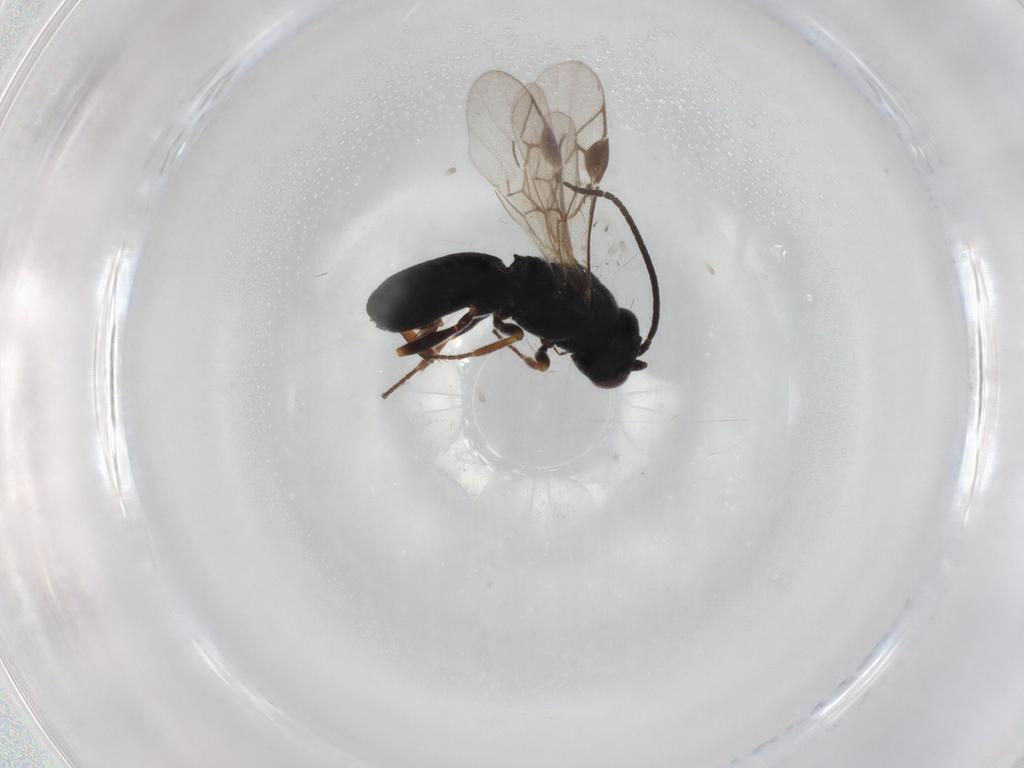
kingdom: Animalia
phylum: Arthropoda
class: Insecta
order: Hymenoptera
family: Braconidae
